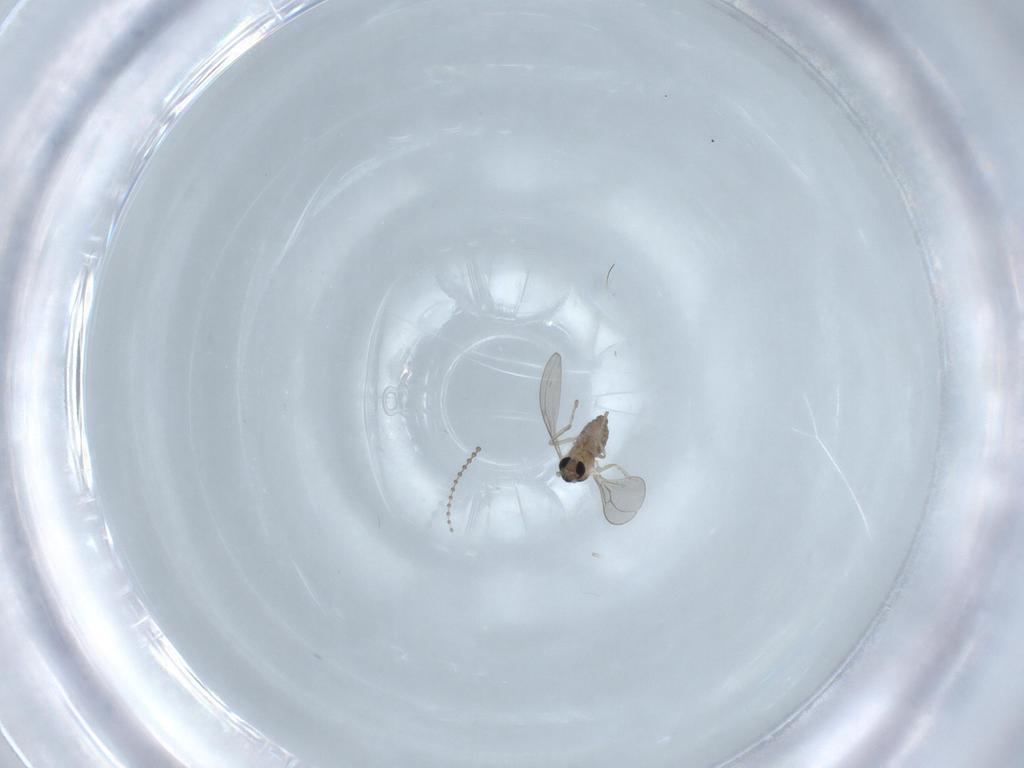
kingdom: Animalia
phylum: Arthropoda
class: Insecta
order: Diptera
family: Cecidomyiidae
